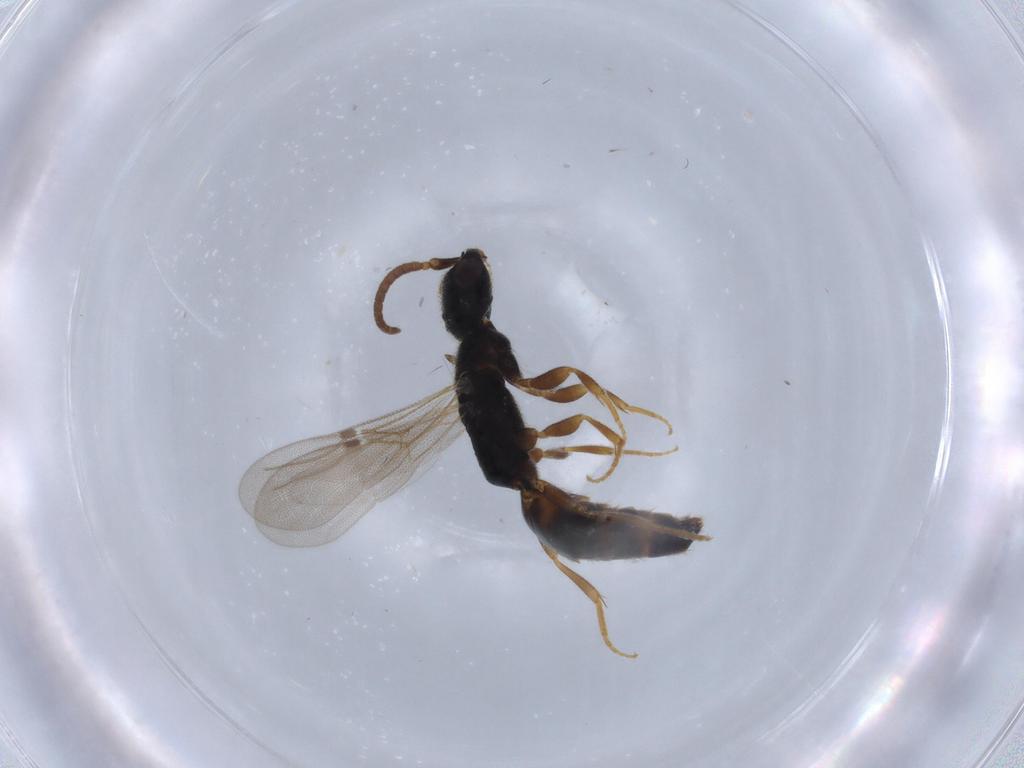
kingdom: Animalia
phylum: Arthropoda
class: Insecta
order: Hymenoptera
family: Bethylidae
